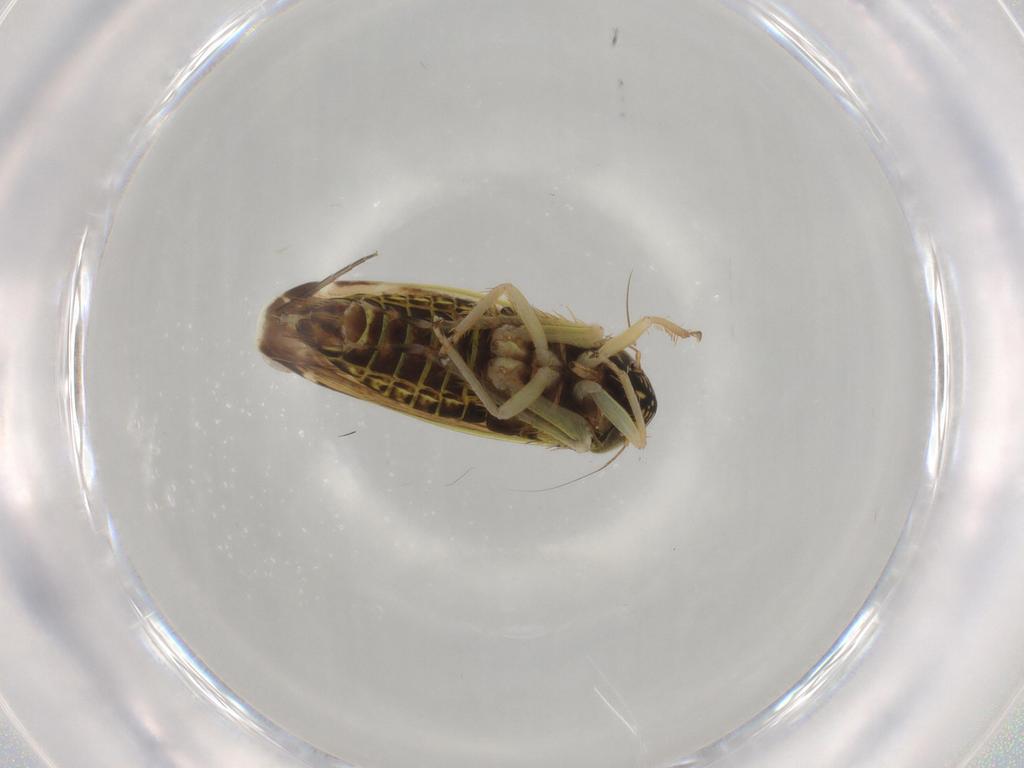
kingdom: Animalia
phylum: Arthropoda
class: Insecta
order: Hemiptera
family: Cicadellidae
